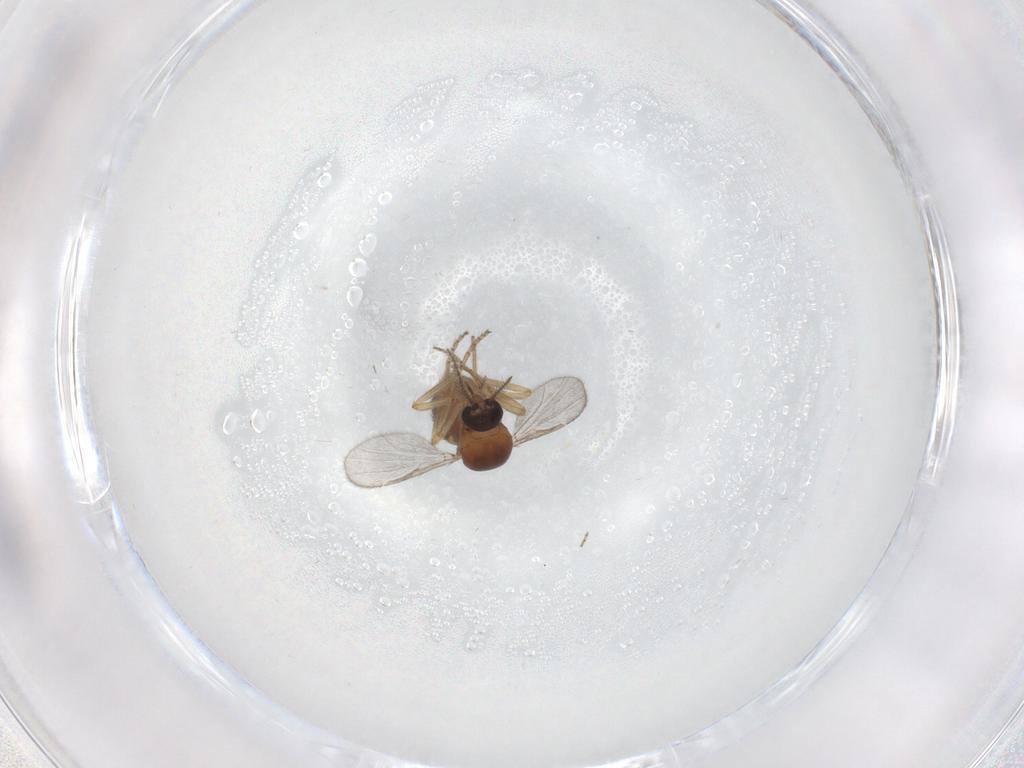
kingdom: Animalia
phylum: Arthropoda
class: Insecta
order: Diptera
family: Ceratopogonidae
